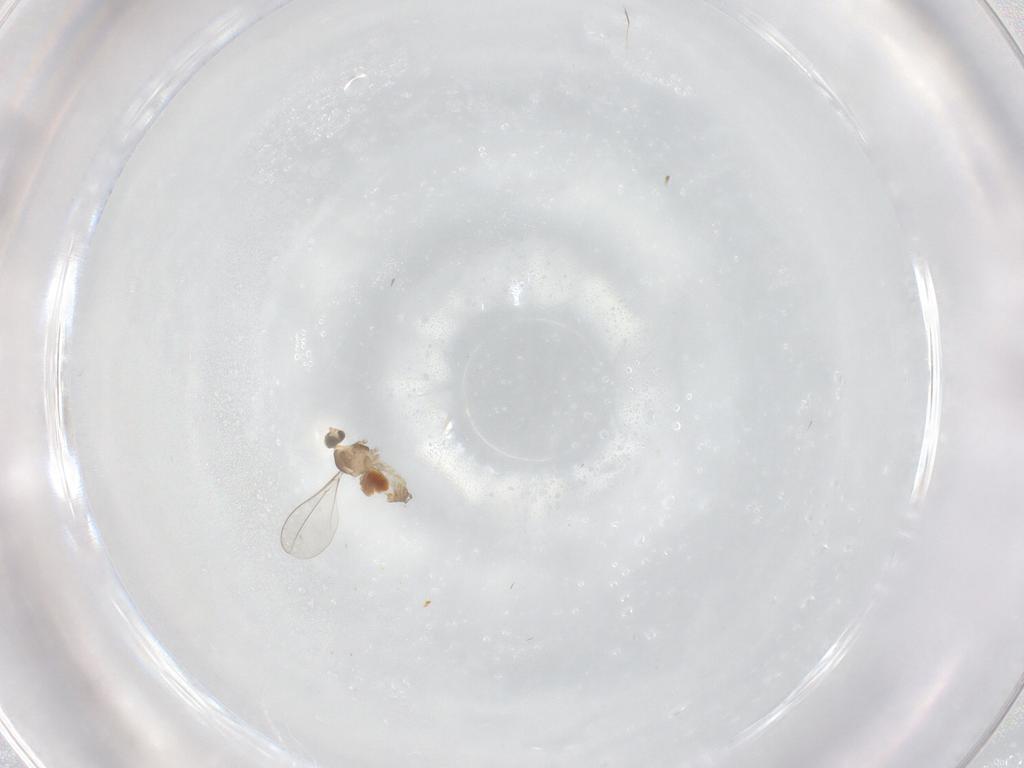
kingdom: Animalia
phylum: Arthropoda
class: Insecta
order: Diptera
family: Cecidomyiidae
